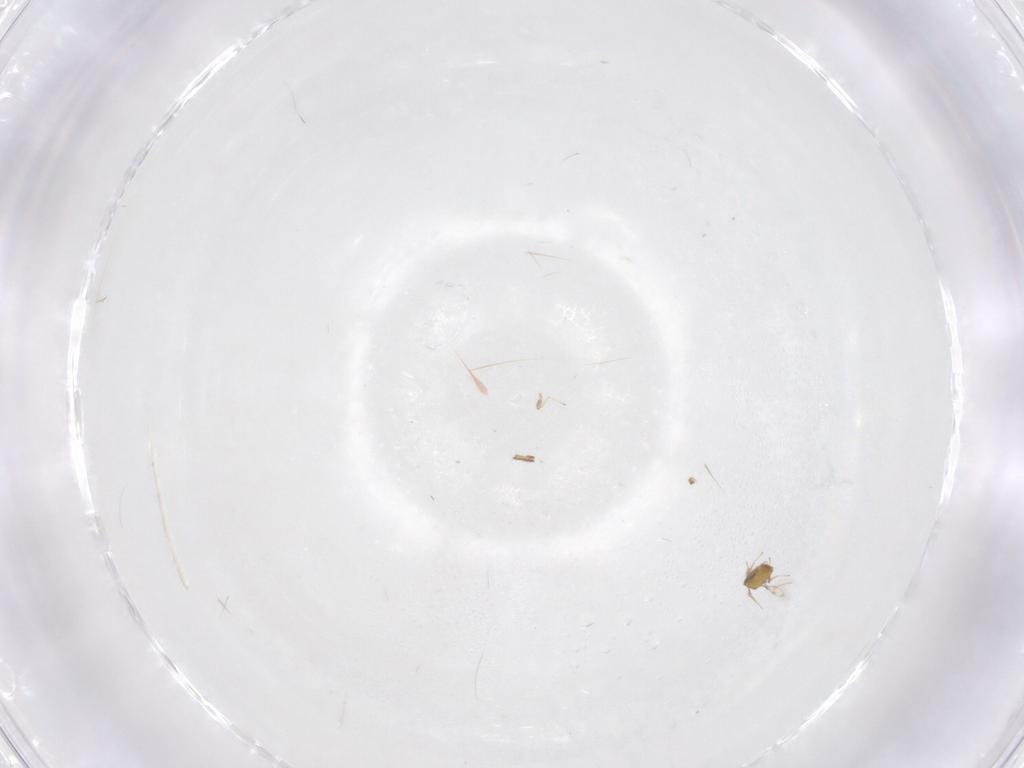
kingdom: Animalia
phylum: Arthropoda
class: Insecta
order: Hymenoptera
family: Trichogrammatidae
